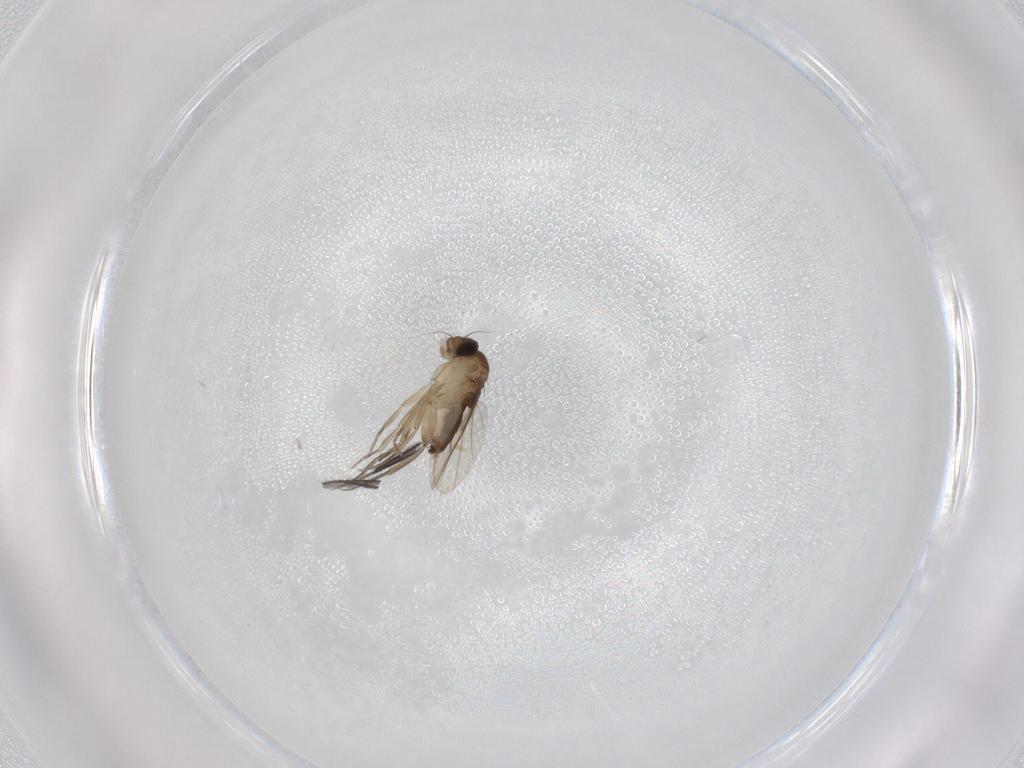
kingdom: Animalia
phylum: Arthropoda
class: Insecta
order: Diptera
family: Phoridae
